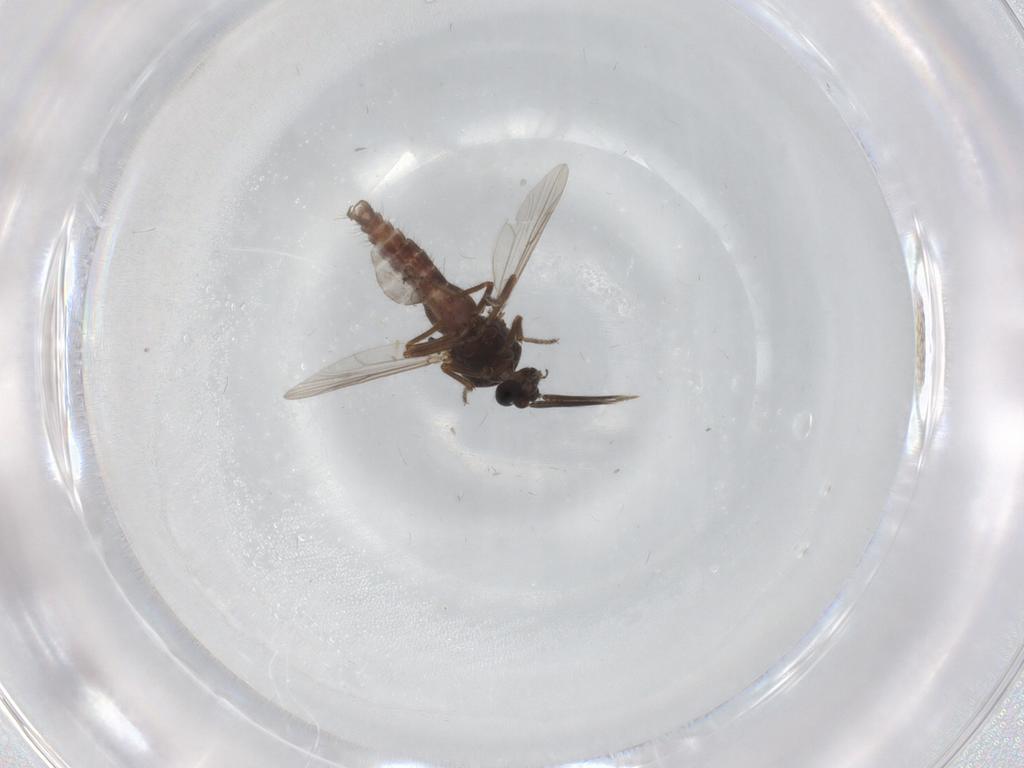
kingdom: Animalia
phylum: Arthropoda
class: Insecta
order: Diptera
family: Ceratopogonidae
